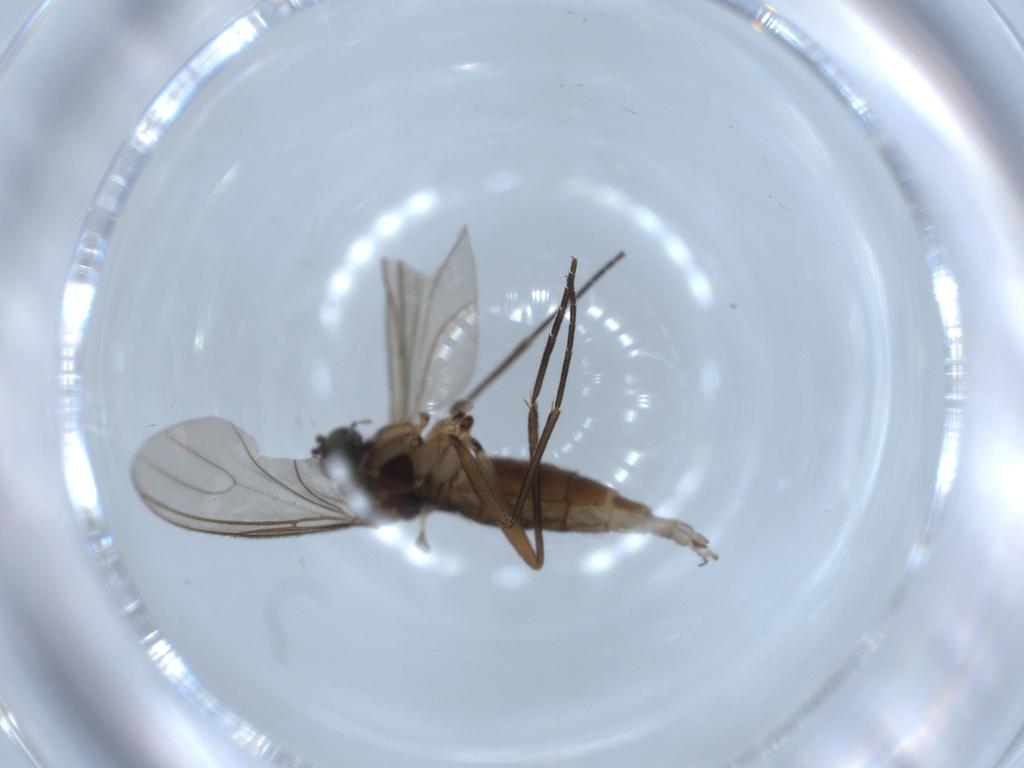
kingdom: Animalia
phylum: Arthropoda
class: Insecta
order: Diptera
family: Sciaridae
